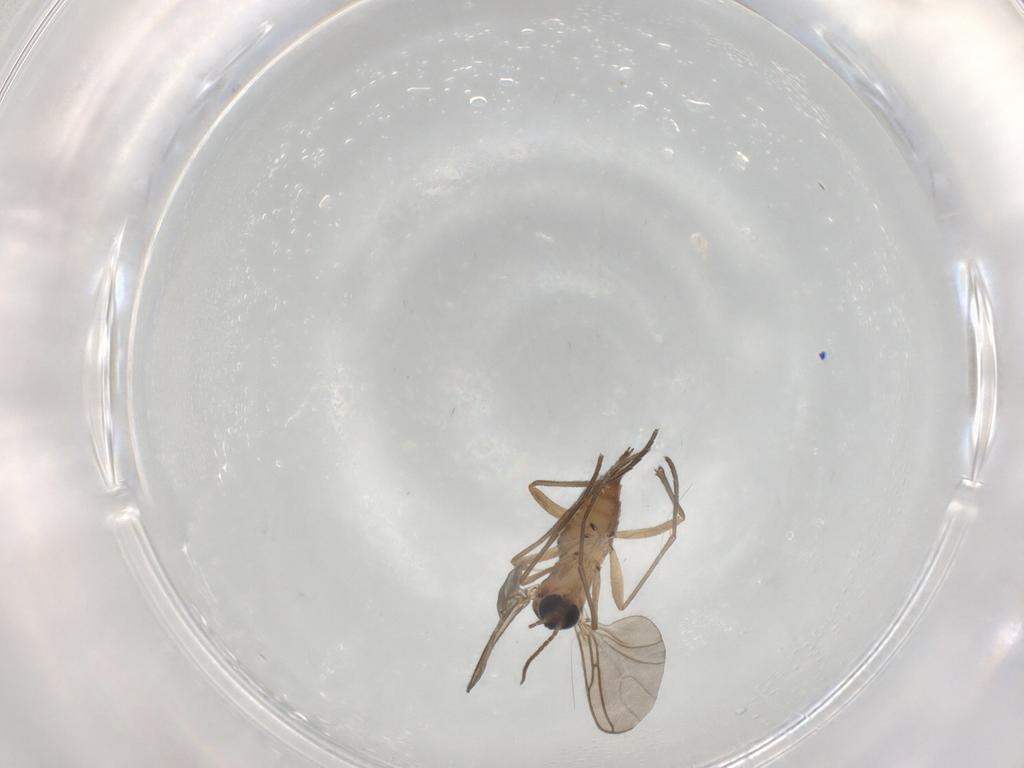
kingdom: Animalia
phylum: Arthropoda
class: Insecta
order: Diptera
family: Sciaridae
